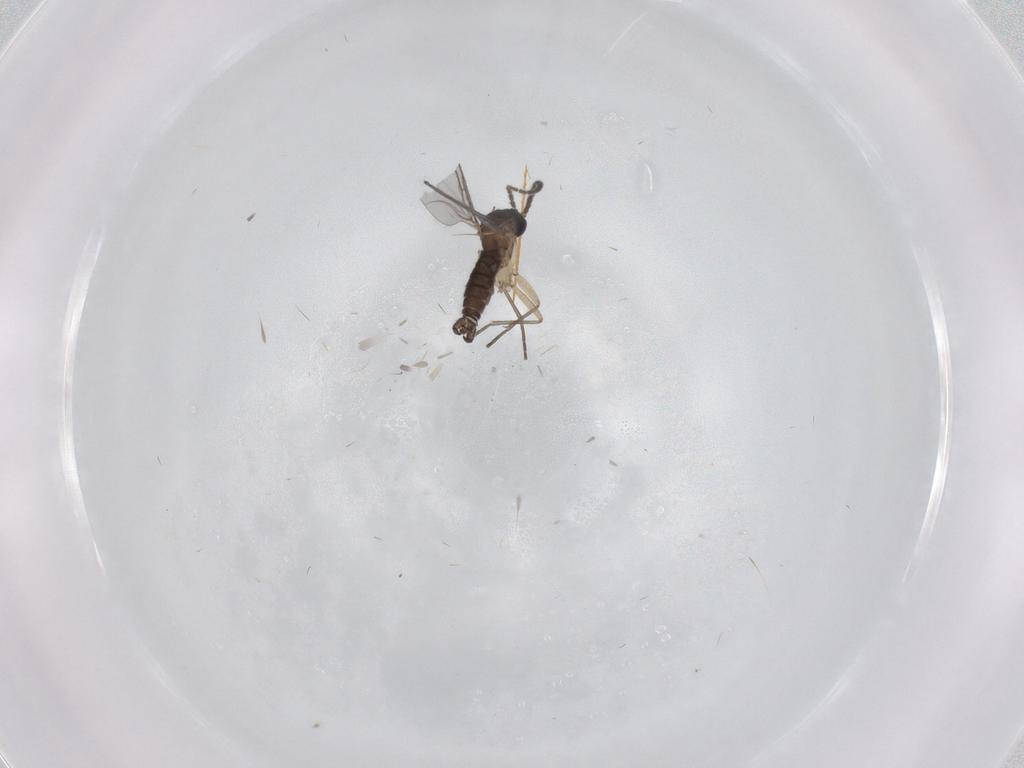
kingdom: Animalia
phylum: Arthropoda
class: Insecta
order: Diptera
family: Sciaridae
